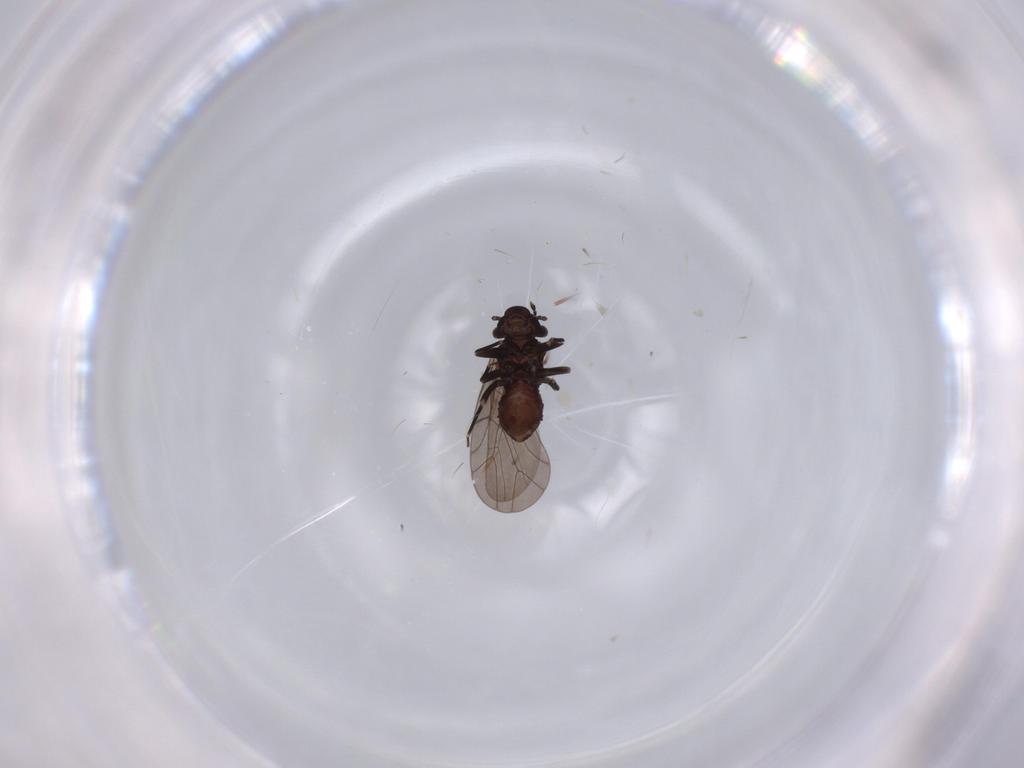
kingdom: Animalia
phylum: Arthropoda
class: Insecta
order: Psocodea
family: Lepidopsocidae
